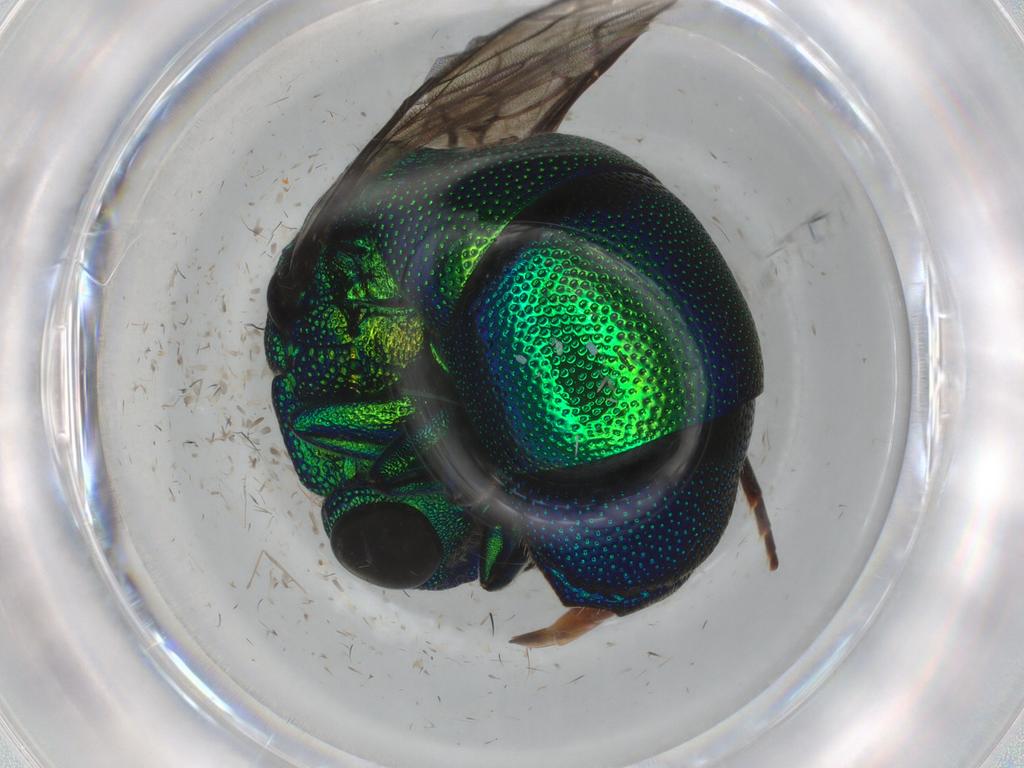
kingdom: Animalia
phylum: Arthropoda
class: Insecta
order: Hymenoptera
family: Chrysididae
